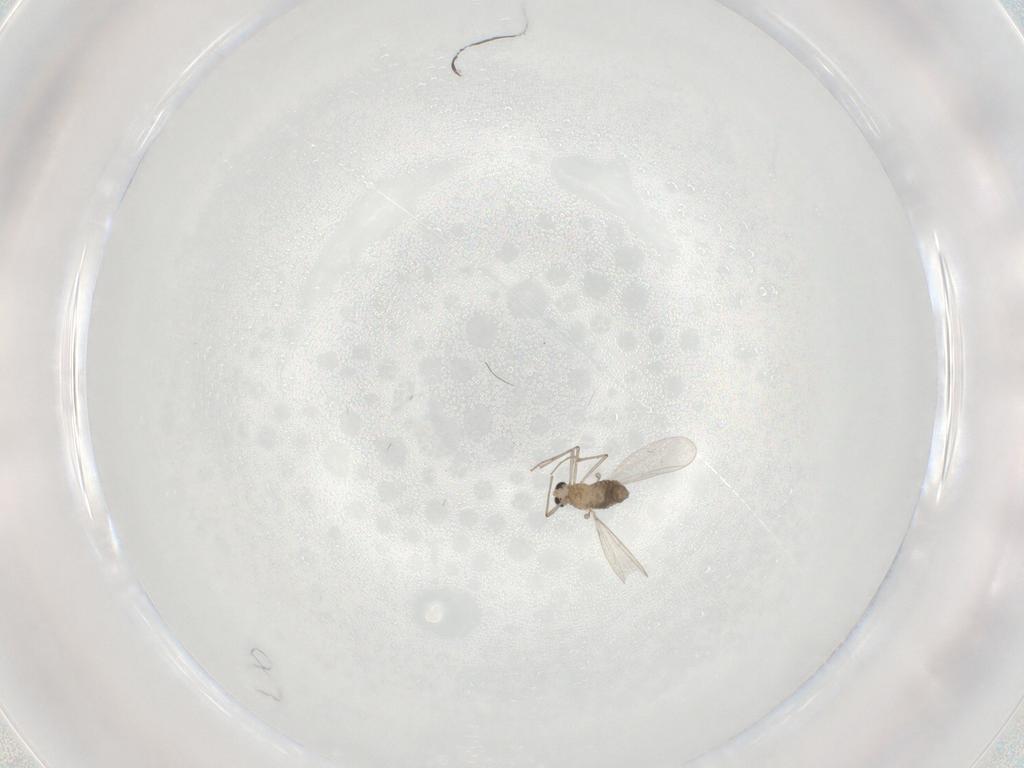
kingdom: Animalia
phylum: Arthropoda
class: Insecta
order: Diptera
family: Chironomidae
